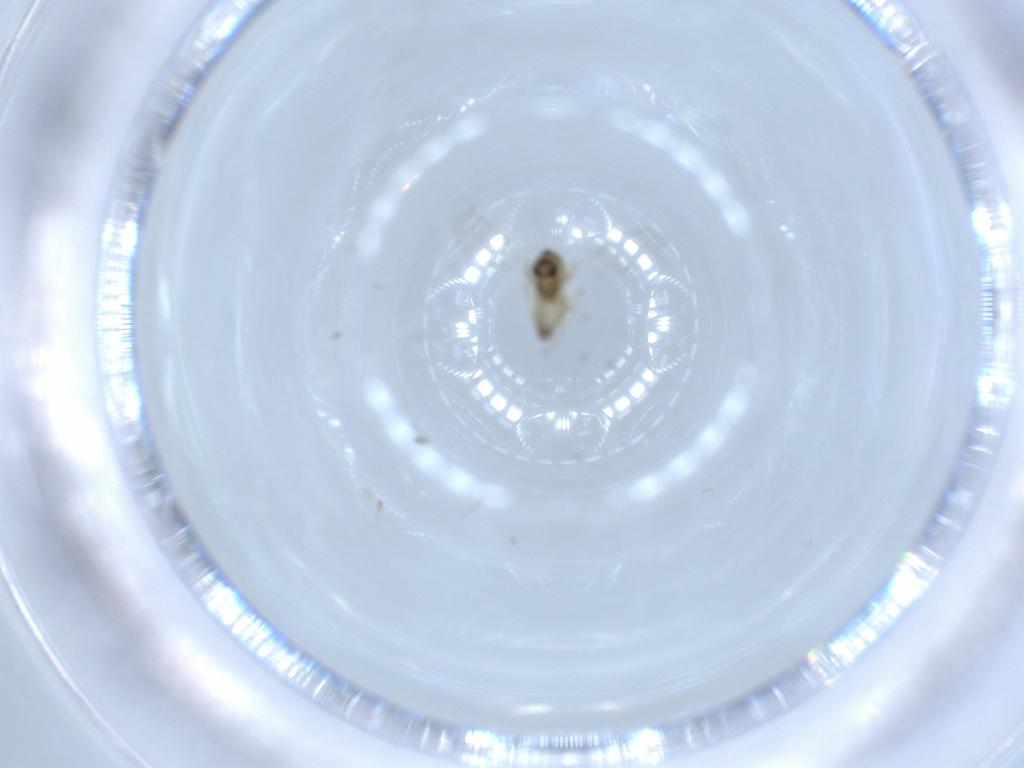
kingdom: Animalia
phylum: Arthropoda
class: Insecta
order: Diptera
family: Chironomidae
